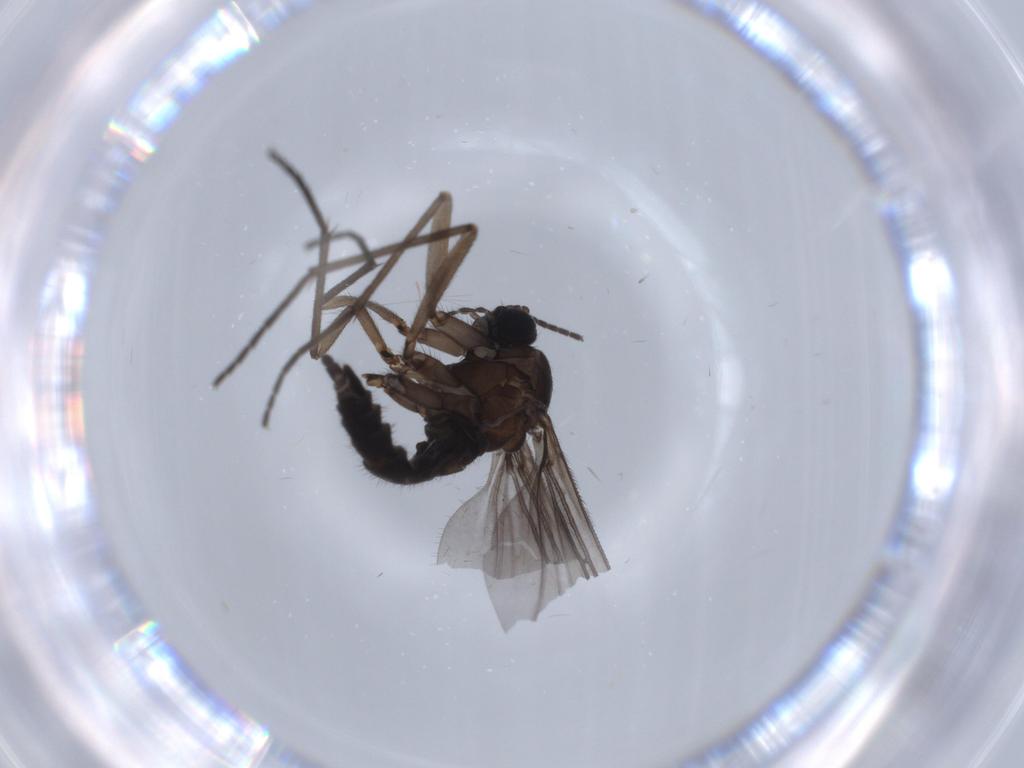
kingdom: Animalia
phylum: Arthropoda
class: Insecta
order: Diptera
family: Sciaridae
